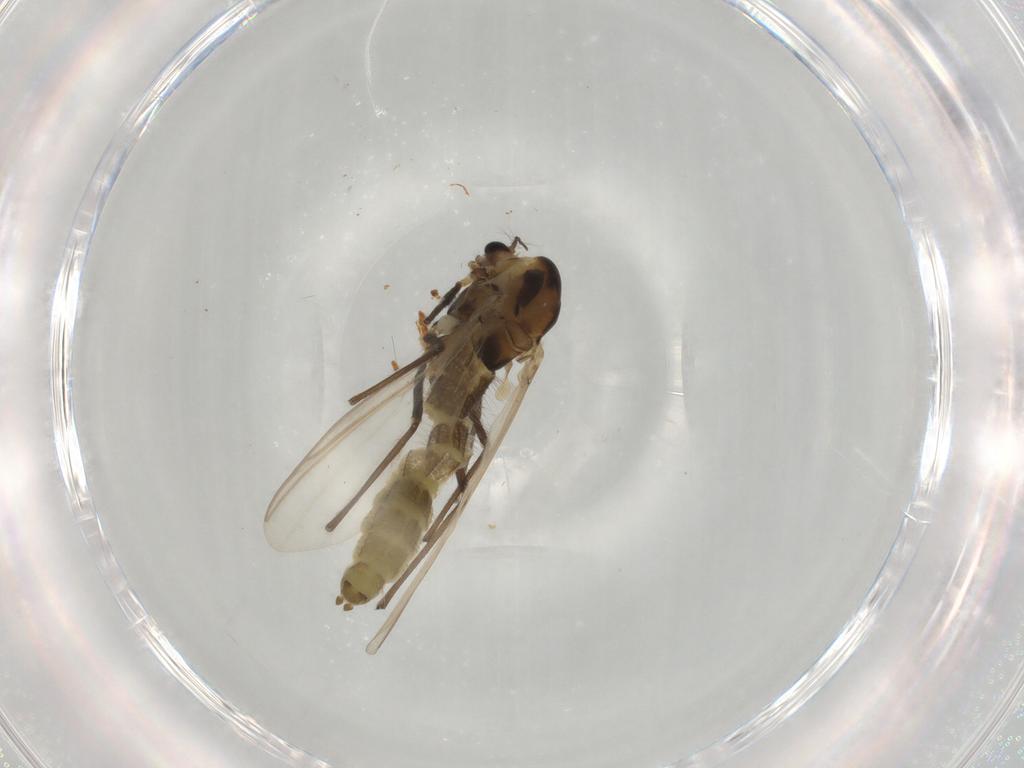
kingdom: Animalia
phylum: Arthropoda
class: Insecta
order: Diptera
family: Chironomidae
